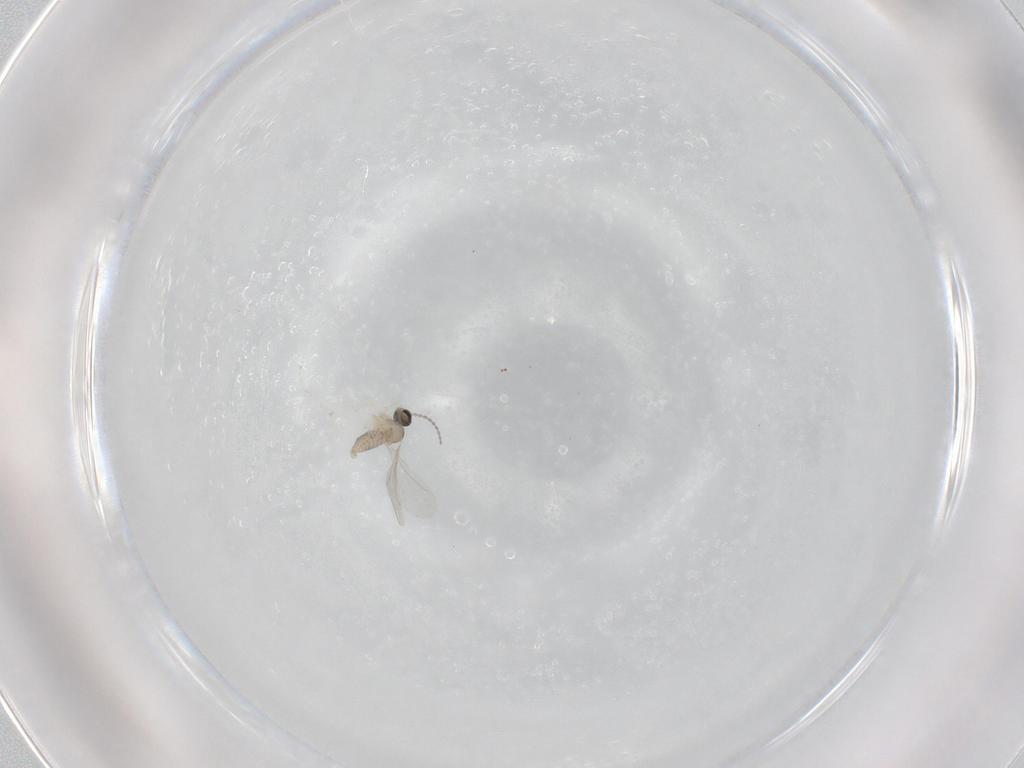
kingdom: Animalia
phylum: Arthropoda
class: Insecta
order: Diptera
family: Cecidomyiidae
